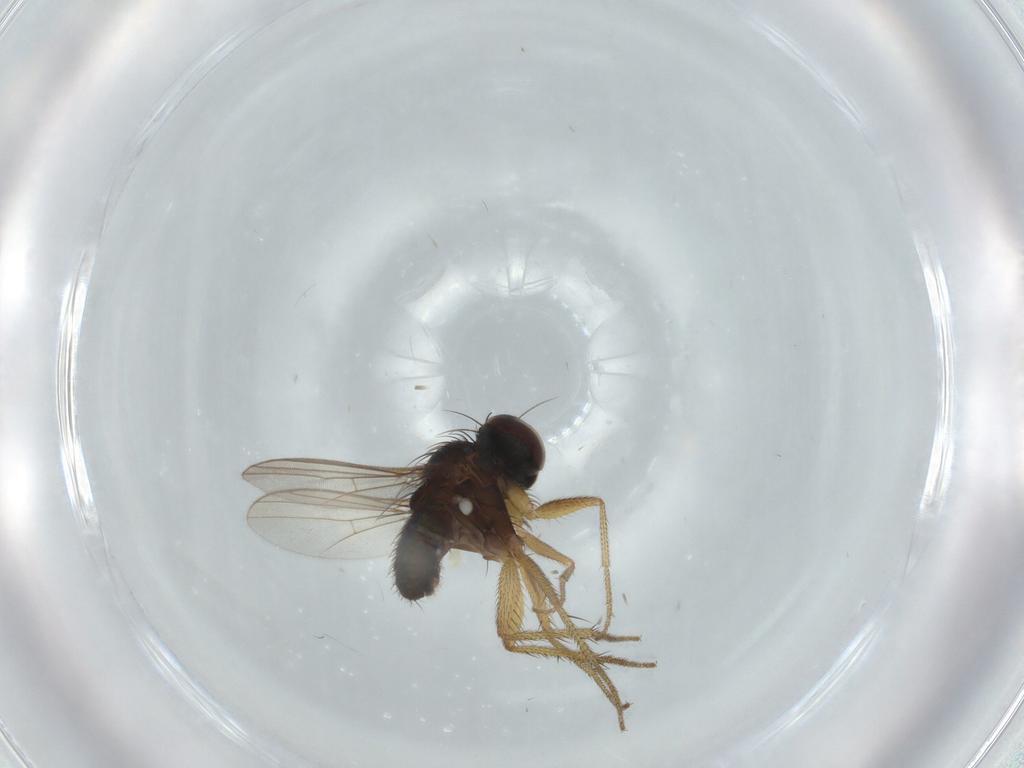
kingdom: Animalia
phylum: Arthropoda
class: Insecta
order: Diptera
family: Dolichopodidae
